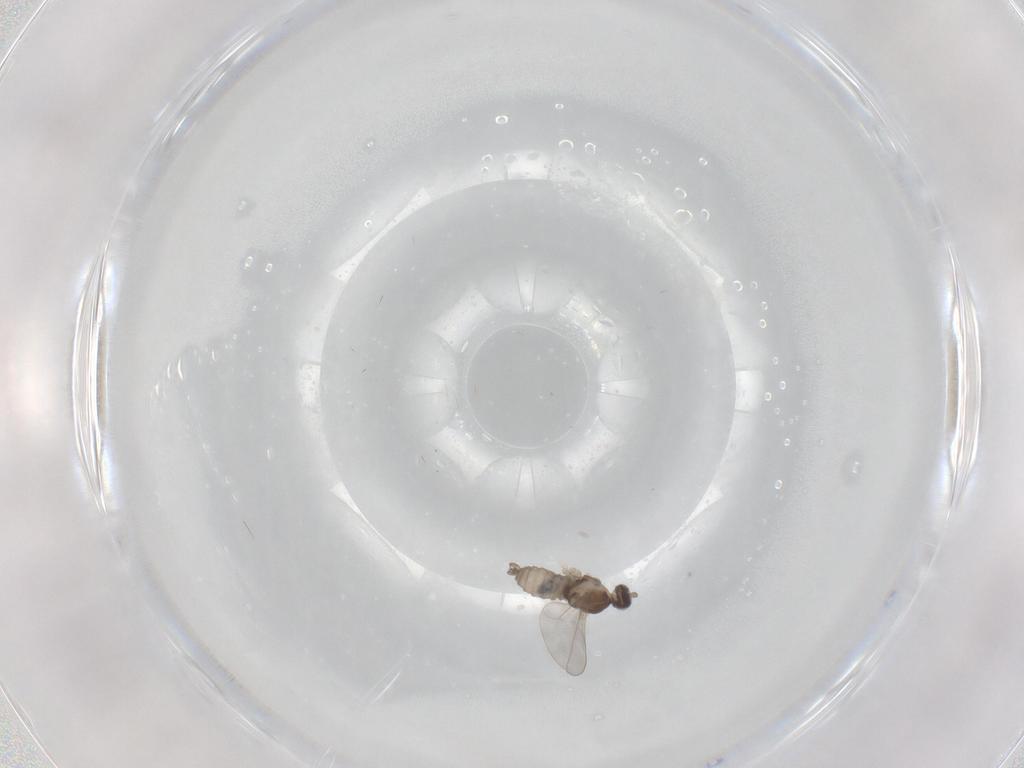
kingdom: Animalia
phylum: Arthropoda
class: Insecta
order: Diptera
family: Cecidomyiidae
